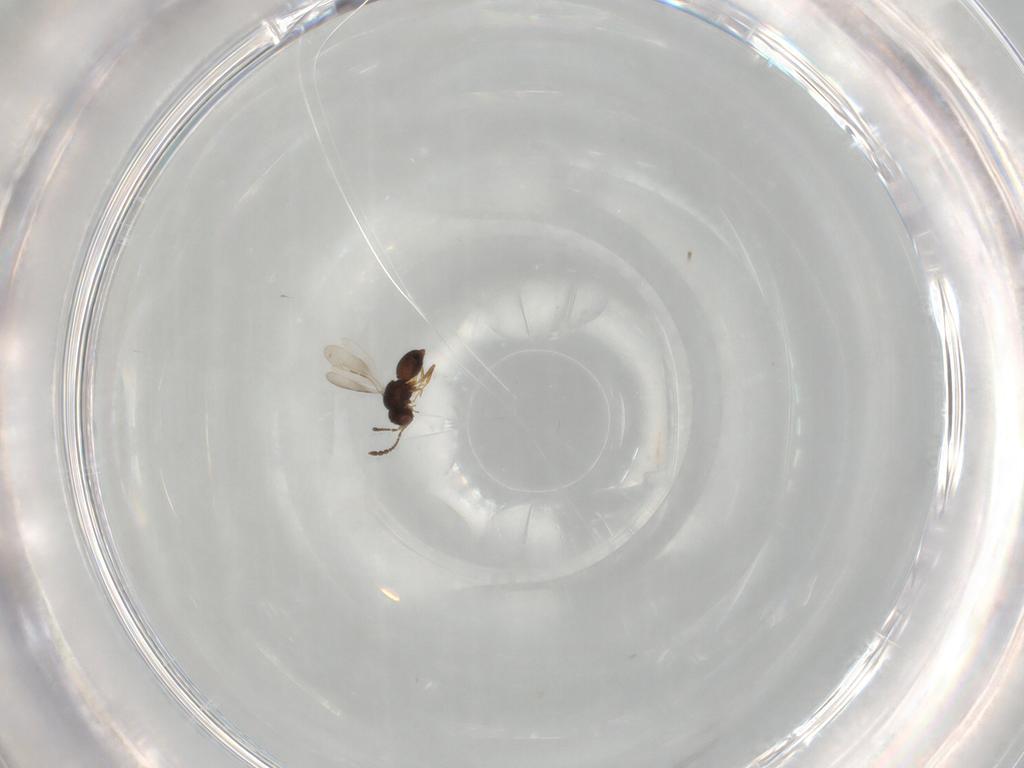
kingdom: Animalia
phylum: Arthropoda
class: Insecta
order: Hymenoptera
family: Vespidae
